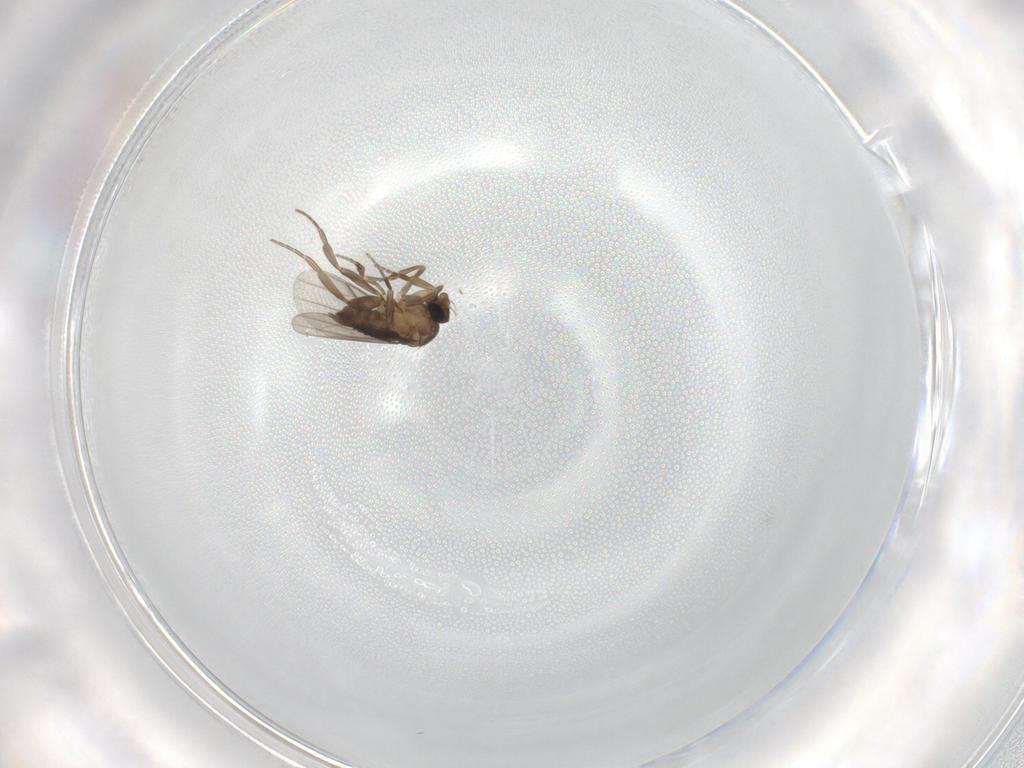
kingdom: Animalia
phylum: Arthropoda
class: Insecta
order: Diptera
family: Phoridae
